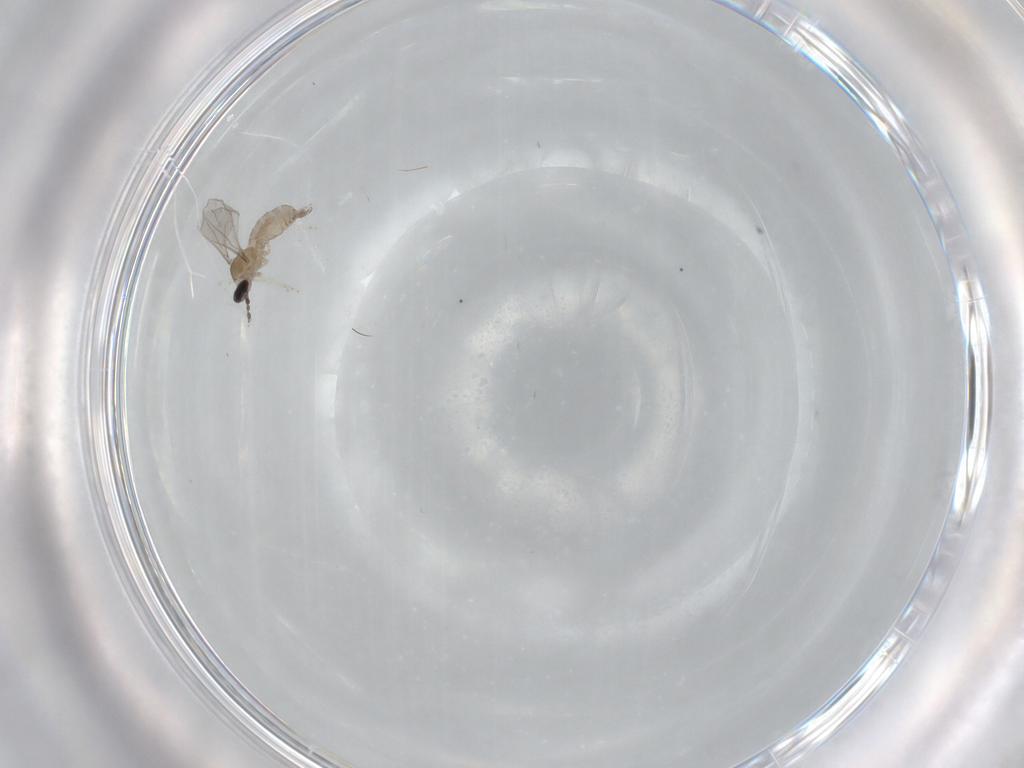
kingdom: Animalia
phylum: Arthropoda
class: Insecta
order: Diptera
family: Cecidomyiidae
